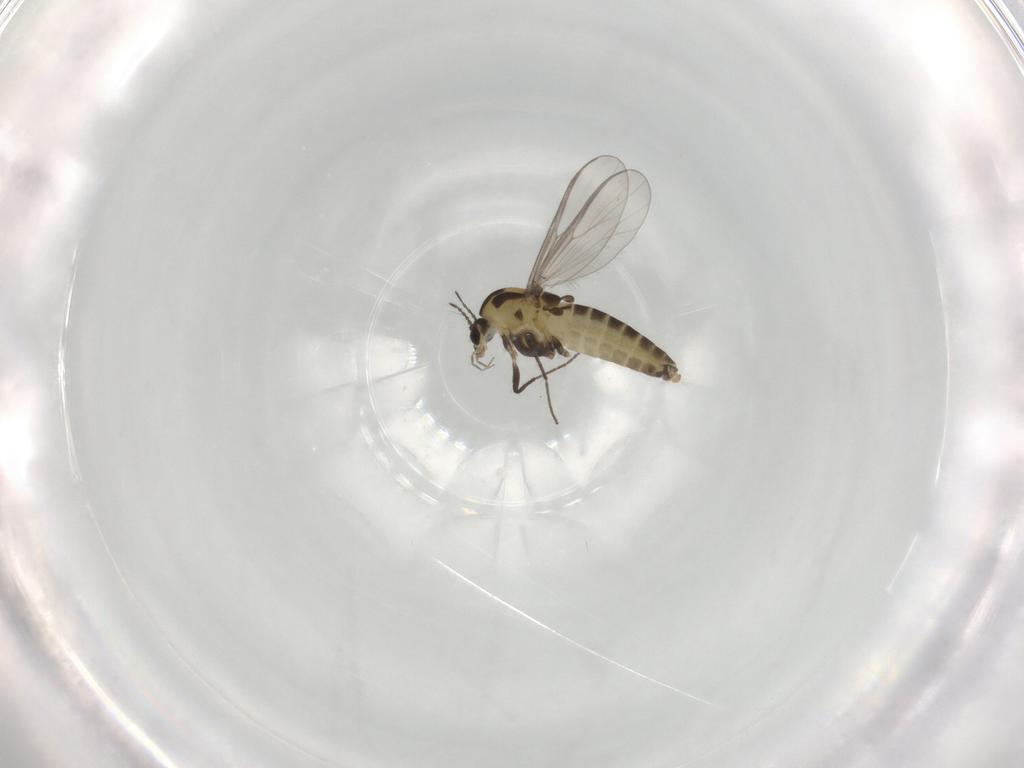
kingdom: Animalia
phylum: Arthropoda
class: Insecta
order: Diptera
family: Chironomidae
